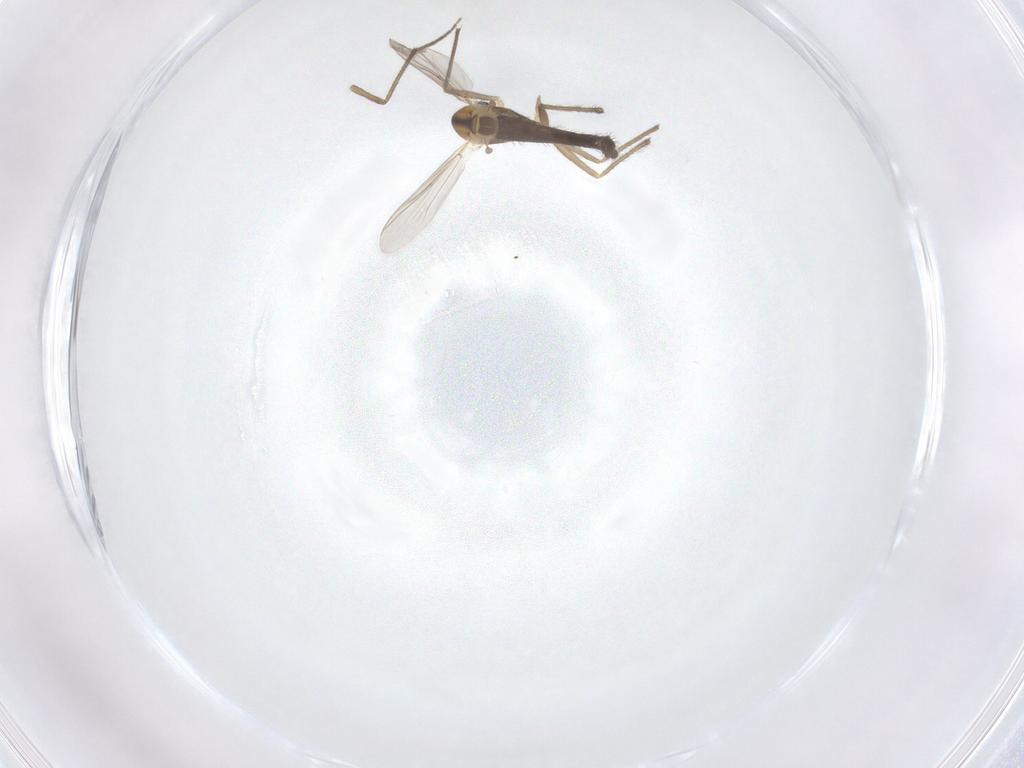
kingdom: Animalia
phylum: Arthropoda
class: Insecta
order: Diptera
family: Chironomidae
